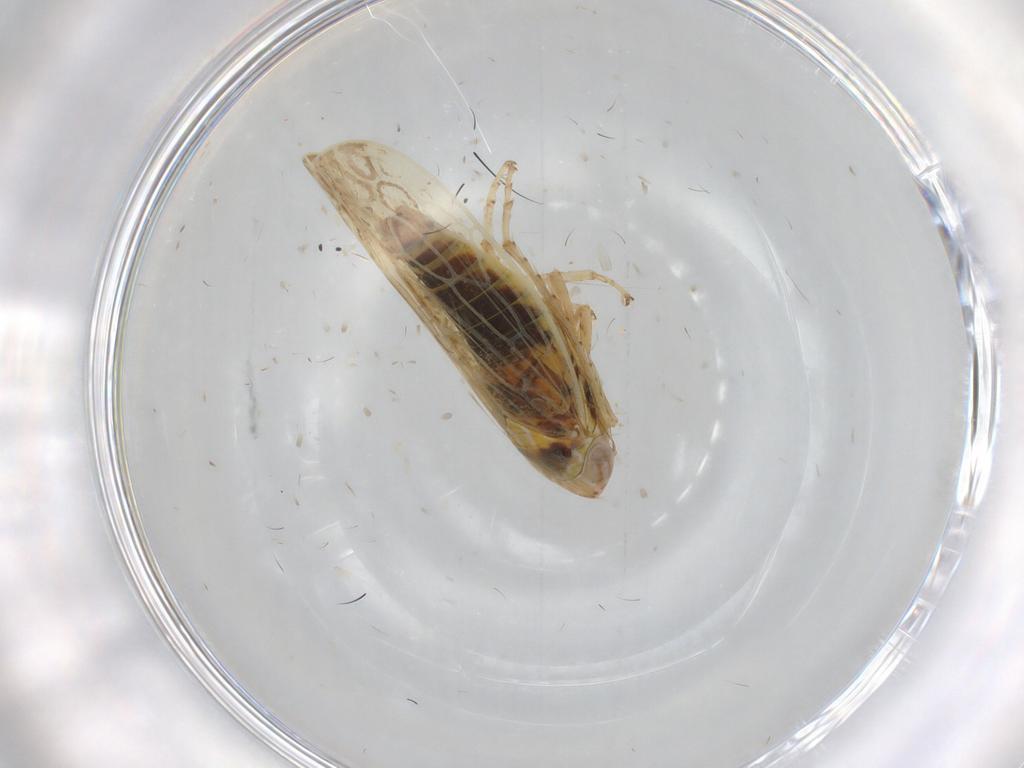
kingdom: Animalia
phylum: Arthropoda
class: Insecta
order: Hemiptera
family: Cicadellidae
